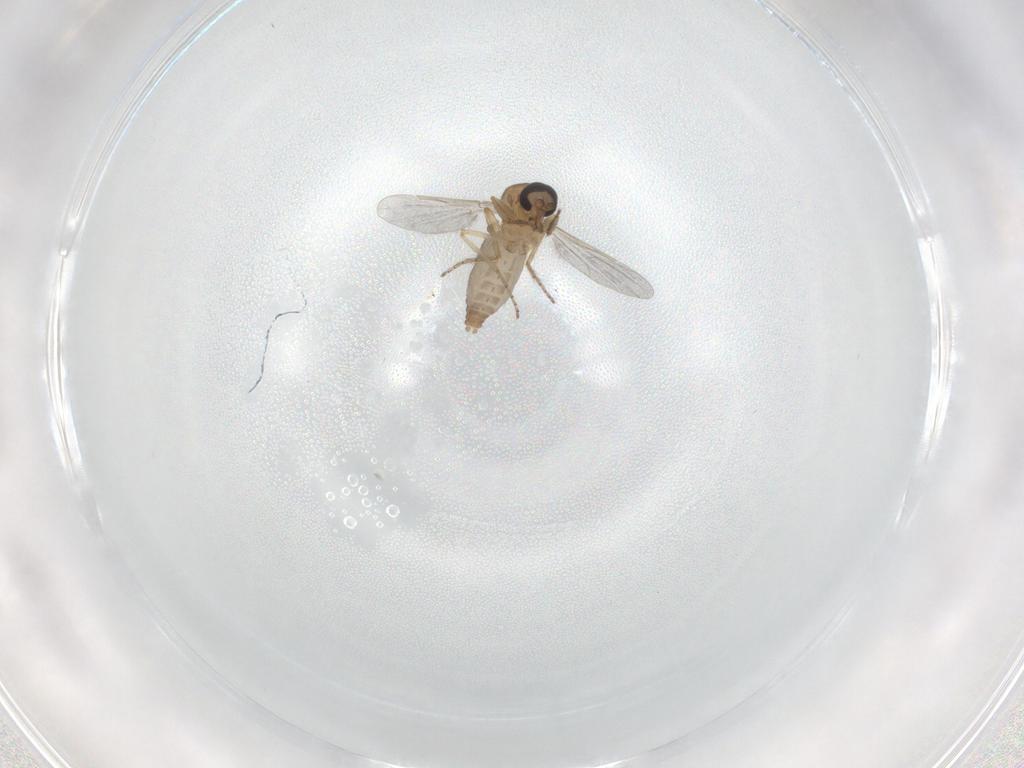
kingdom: Animalia
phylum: Arthropoda
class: Insecta
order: Diptera
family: Ceratopogonidae
